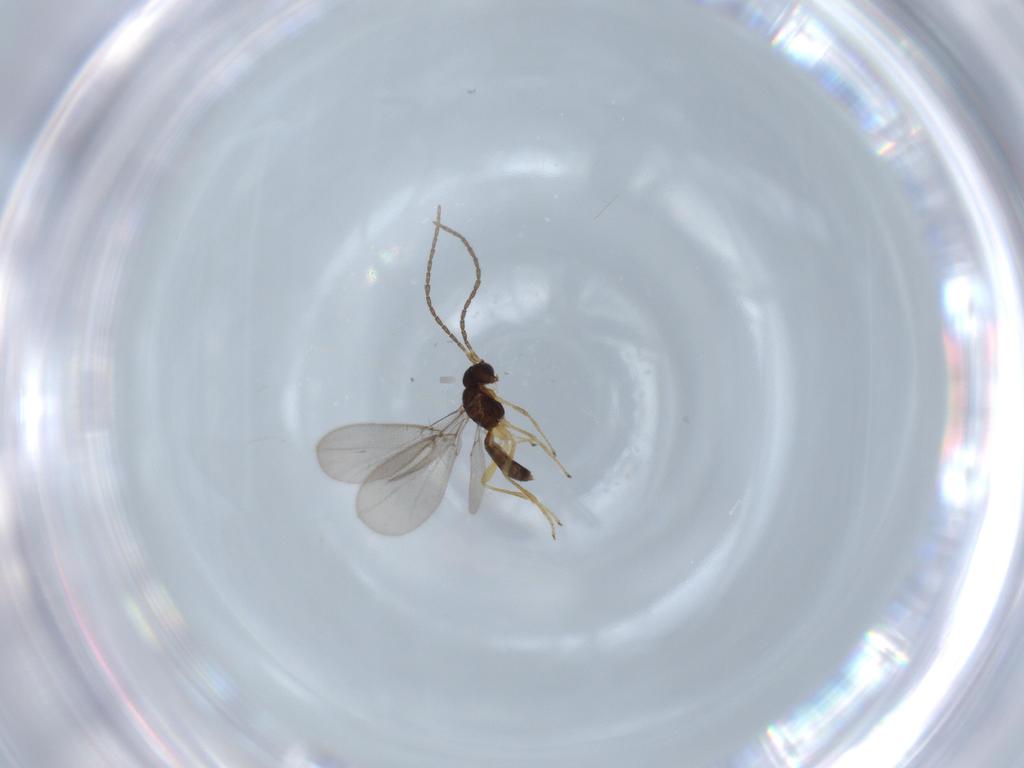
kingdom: Animalia
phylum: Arthropoda
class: Insecta
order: Hymenoptera
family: Braconidae
